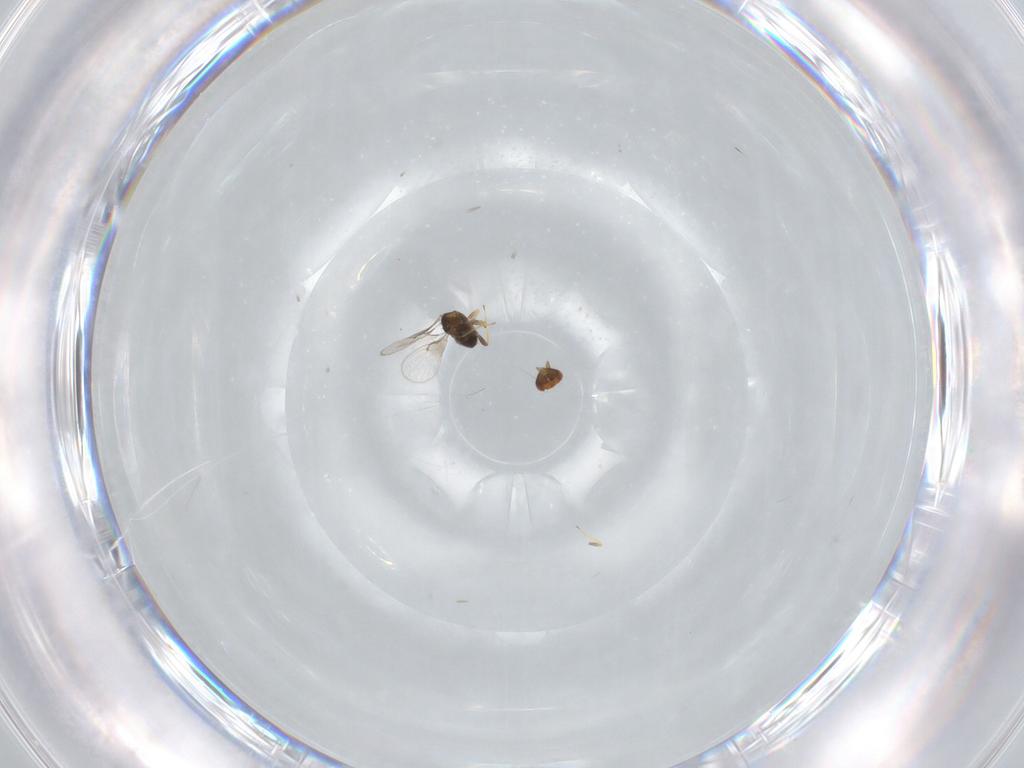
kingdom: Animalia
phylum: Arthropoda
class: Insecta
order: Hymenoptera
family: Trichogrammatidae
